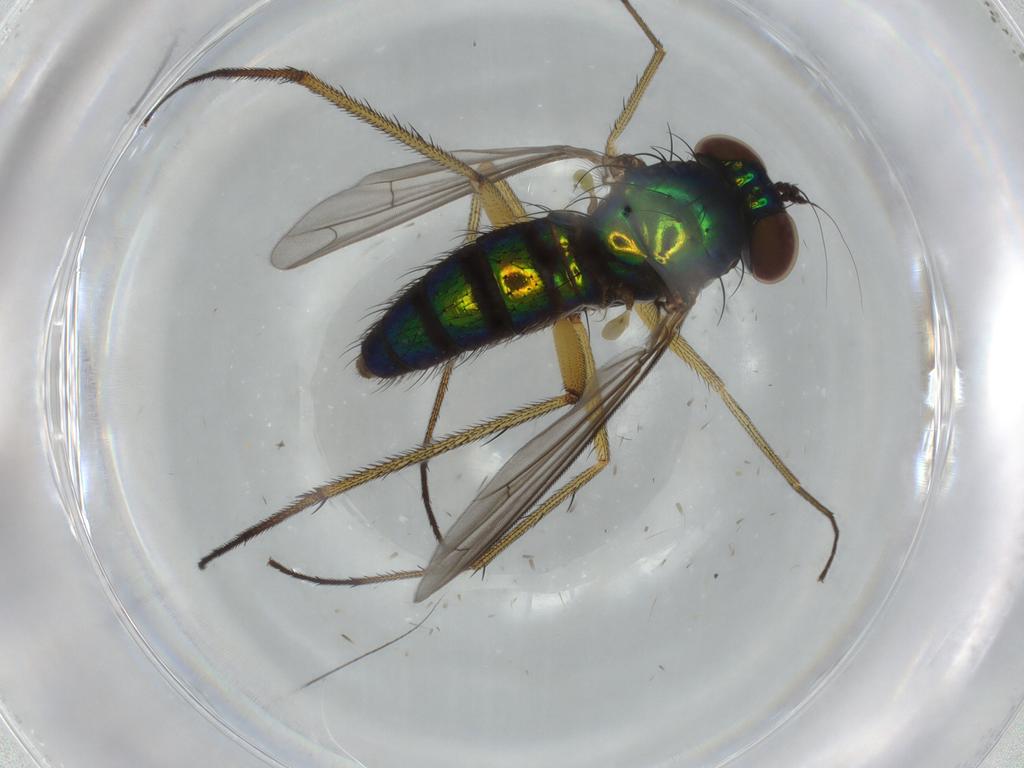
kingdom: Animalia
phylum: Arthropoda
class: Insecta
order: Diptera
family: Dolichopodidae
